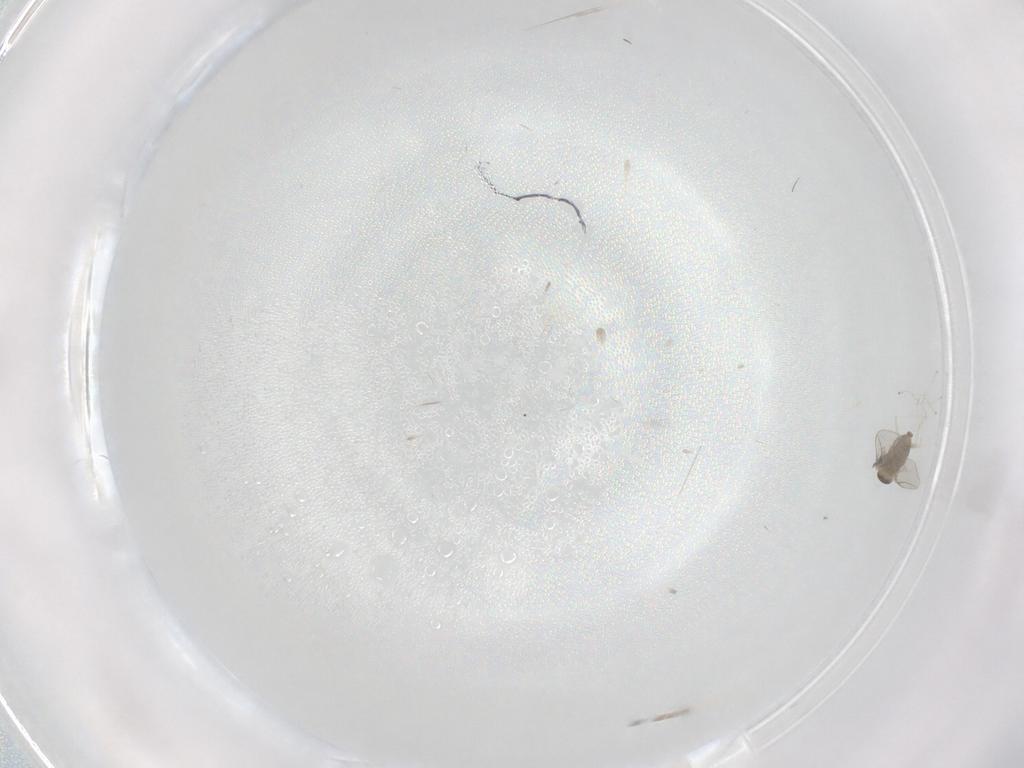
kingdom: Animalia
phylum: Arthropoda
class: Insecta
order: Diptera
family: Cecidomyiidae
